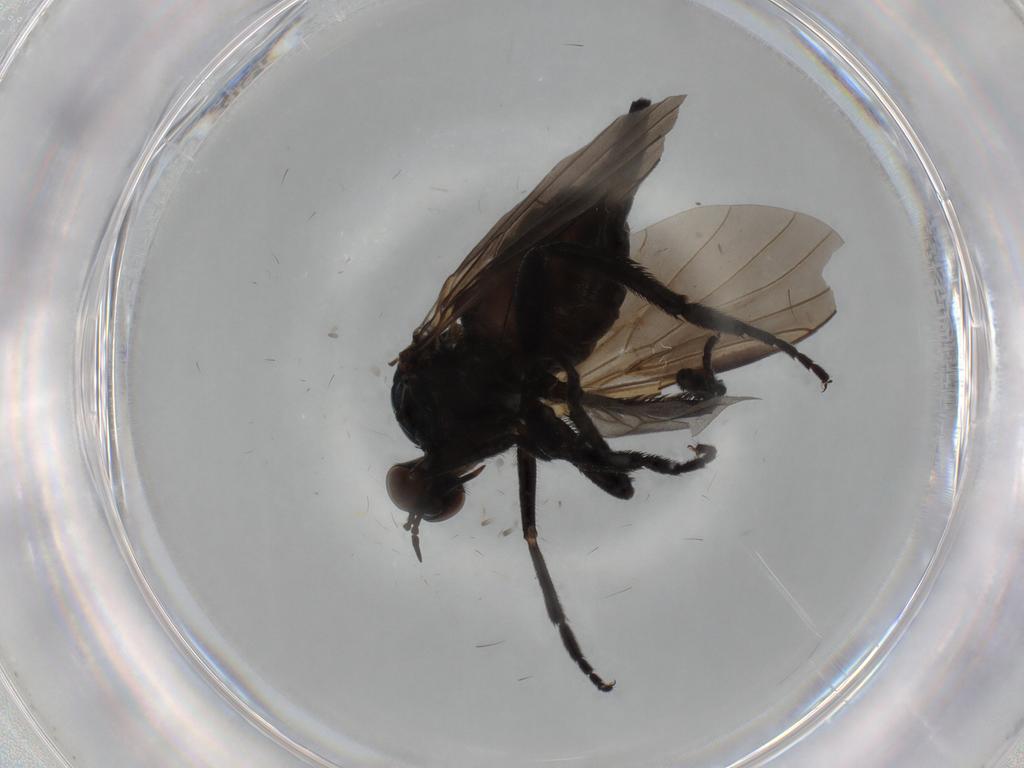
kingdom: Animalia
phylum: Arthropoda
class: Insecta
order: Diptera
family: Empididae
